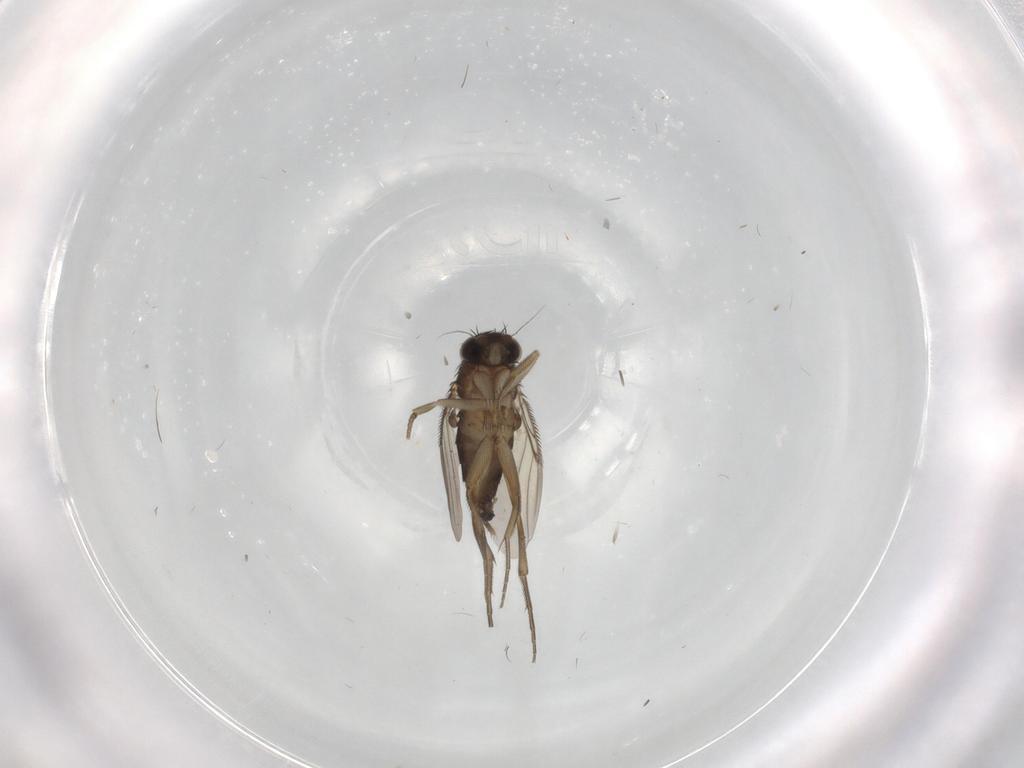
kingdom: Animalia
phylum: Arthropoda
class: Insecta
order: Diptera
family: Phoridae
